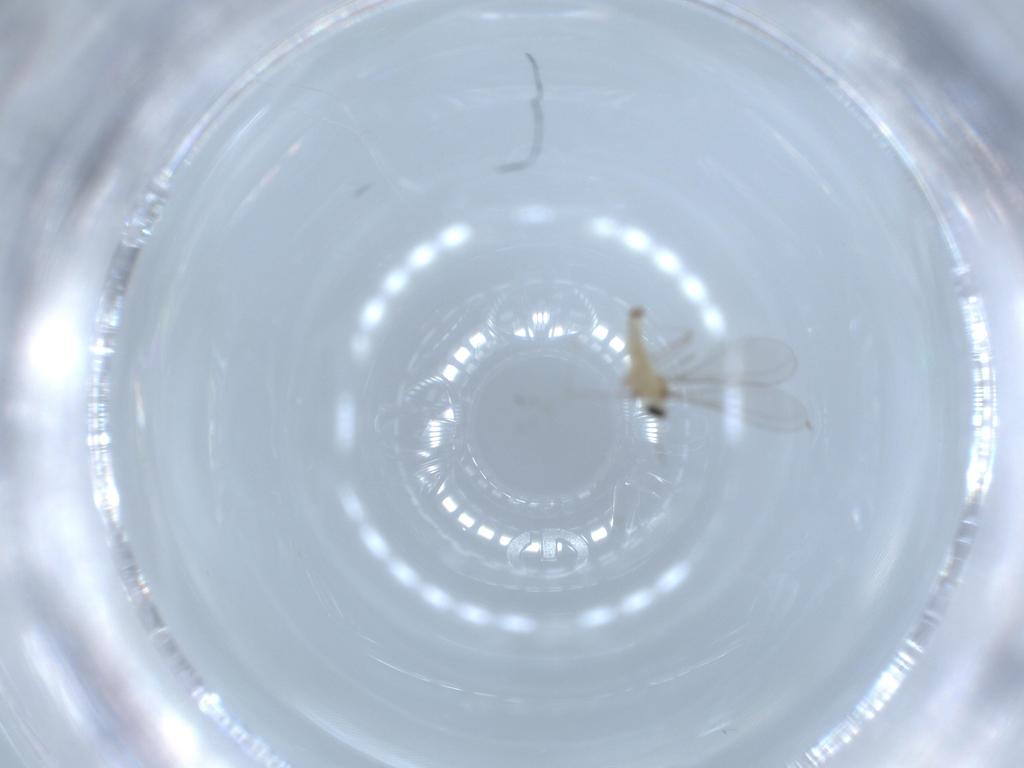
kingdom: Animalia
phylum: Arthropoda
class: Insecta
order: Diptera
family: Cecidomyiidae
